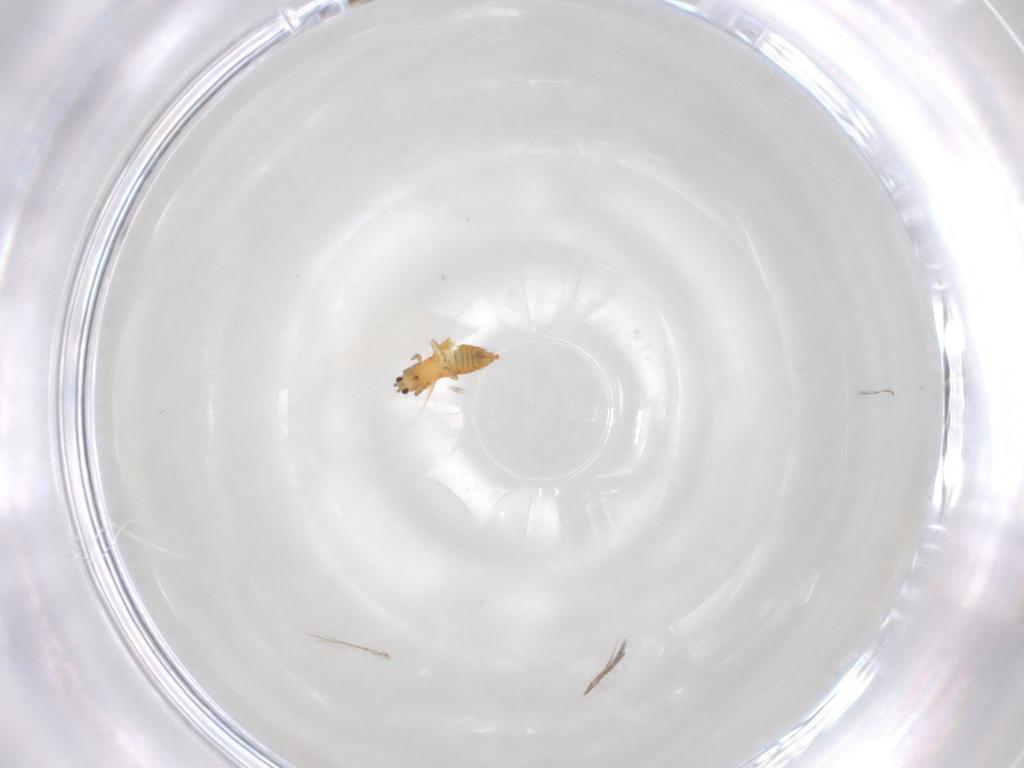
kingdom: Animalia
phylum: Arthropoda
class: Insecta
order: Thysanoptera
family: Thripidae
